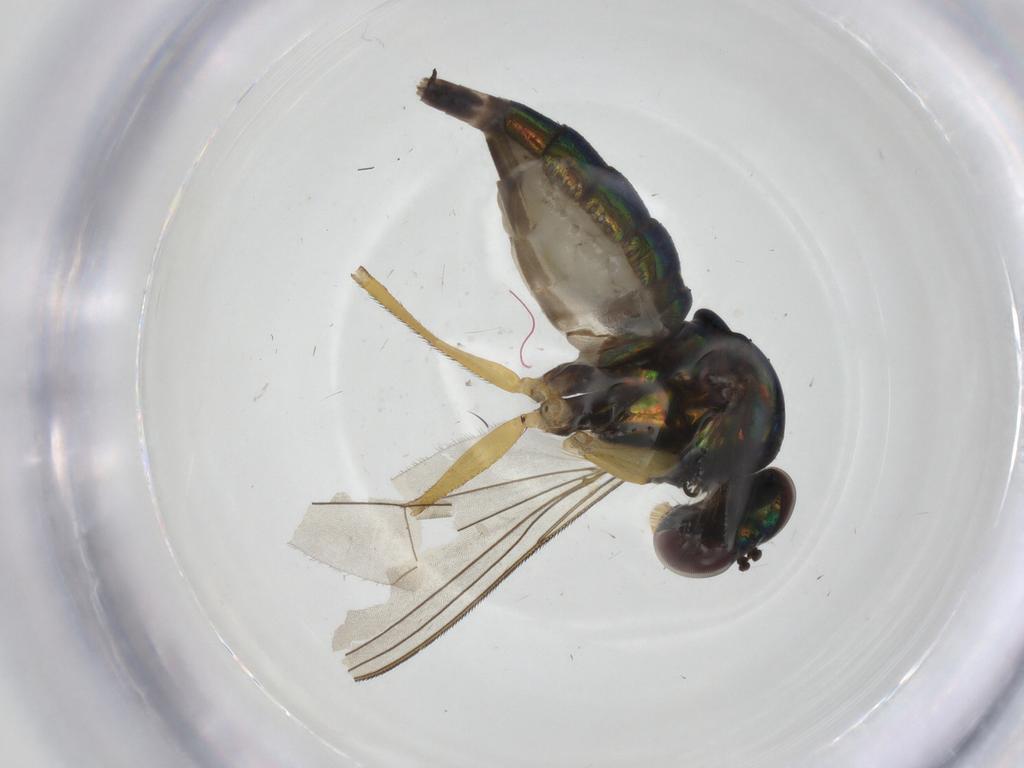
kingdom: Animalia
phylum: Arthropoda
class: Insecta
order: Diptera
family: Dolichopodidae
